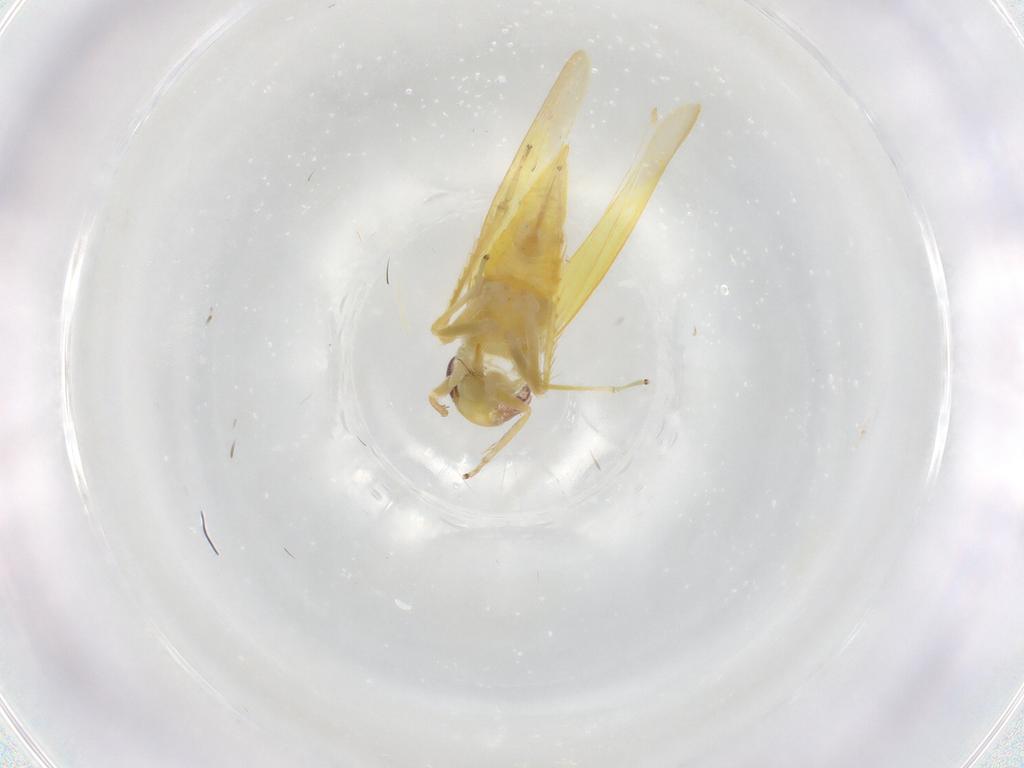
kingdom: Animalia
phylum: Arthropoda
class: Insecta
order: Hemiptera
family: Cicadellidae
